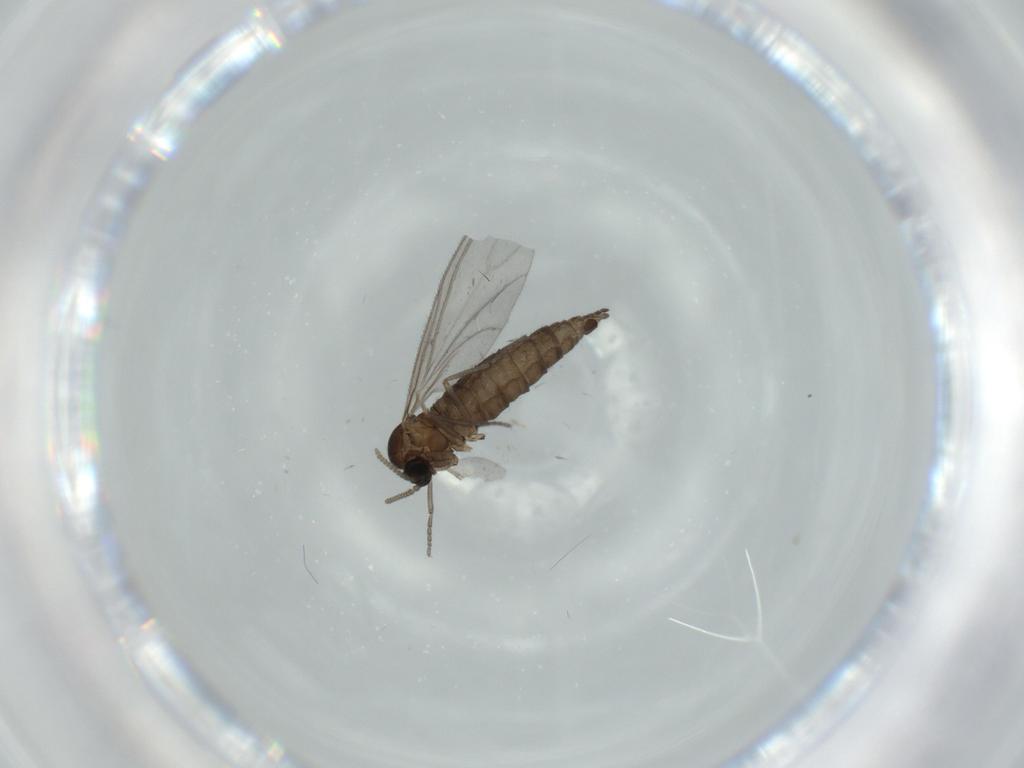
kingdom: Animalia
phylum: Arthropoda
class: Insecta
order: Diptera
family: Sciaridae
